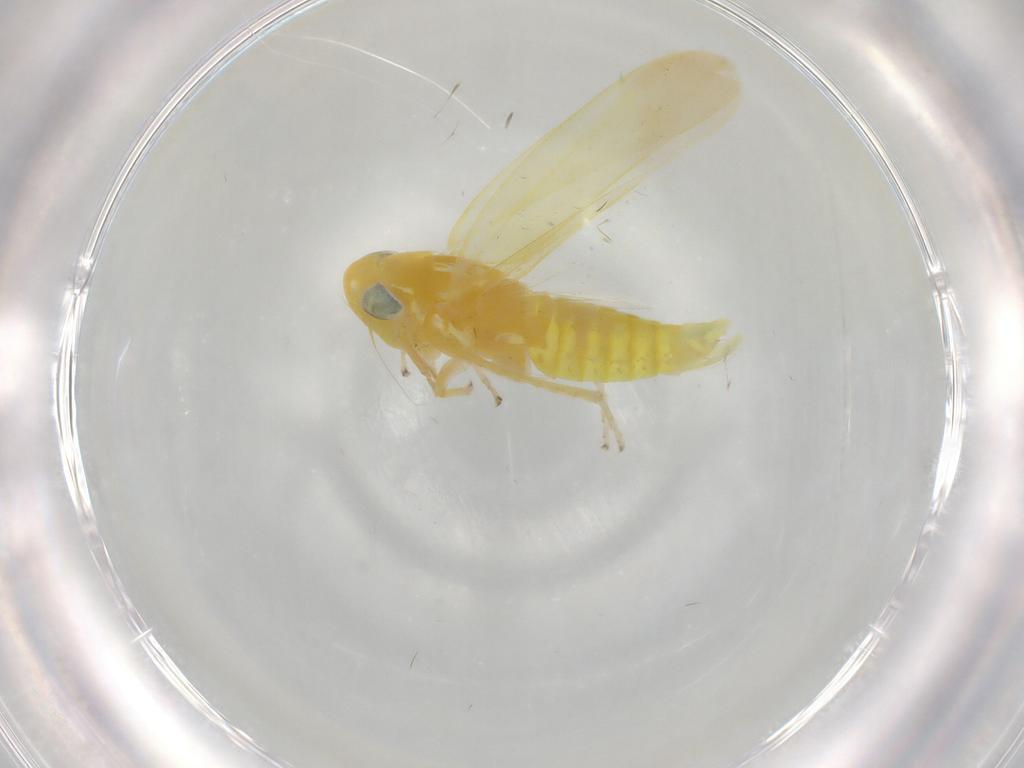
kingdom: Animalia
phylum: Arthropoda
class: Insecta
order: Hemiptera
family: Cicadellidae
